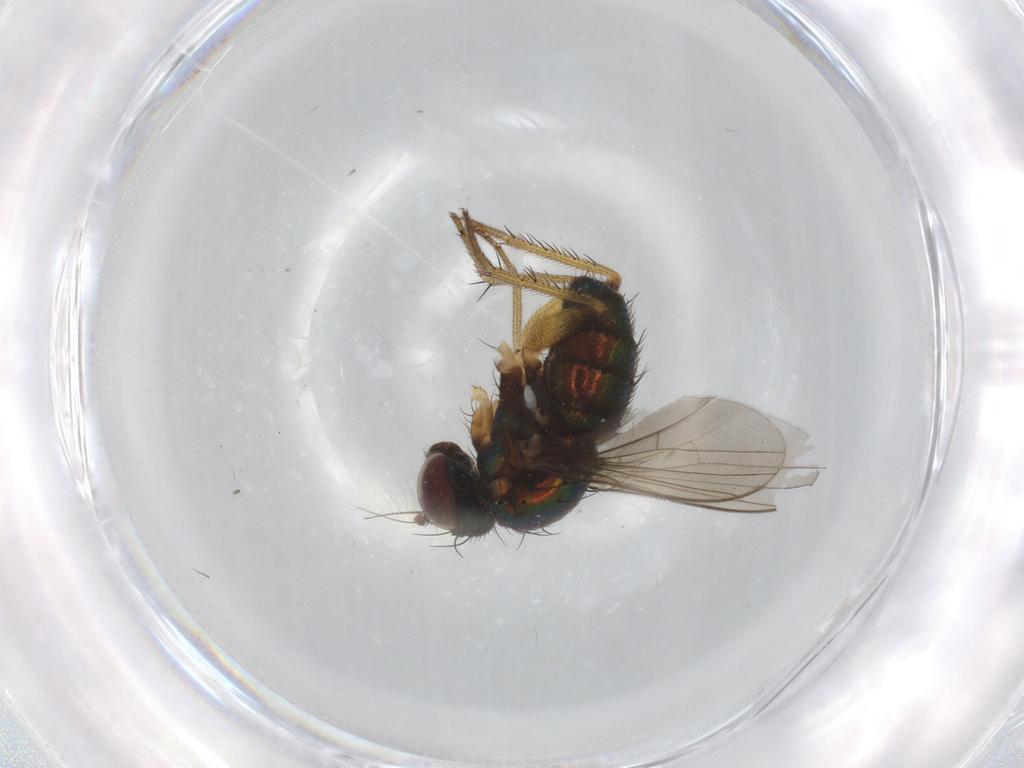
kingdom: Animalia
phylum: Arthropoda
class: Insecta
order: Diptera
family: Dolichopodidae
